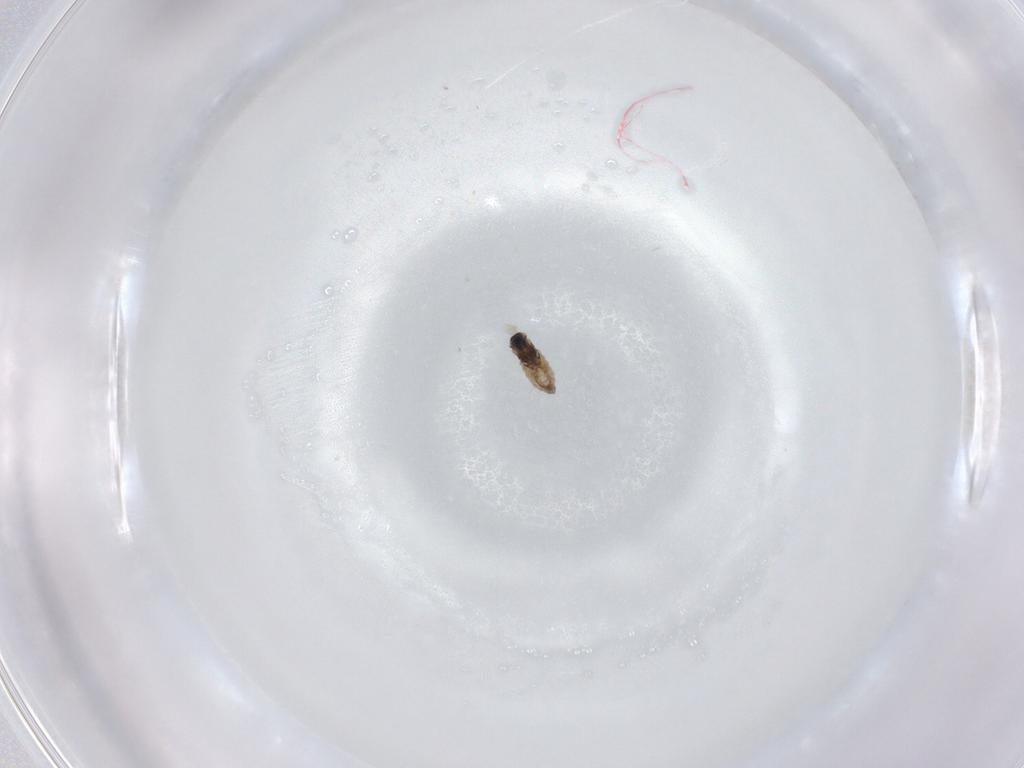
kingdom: Animalia
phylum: Arthropoda
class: Insecta
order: Diptera
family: Cecidomyiidae
